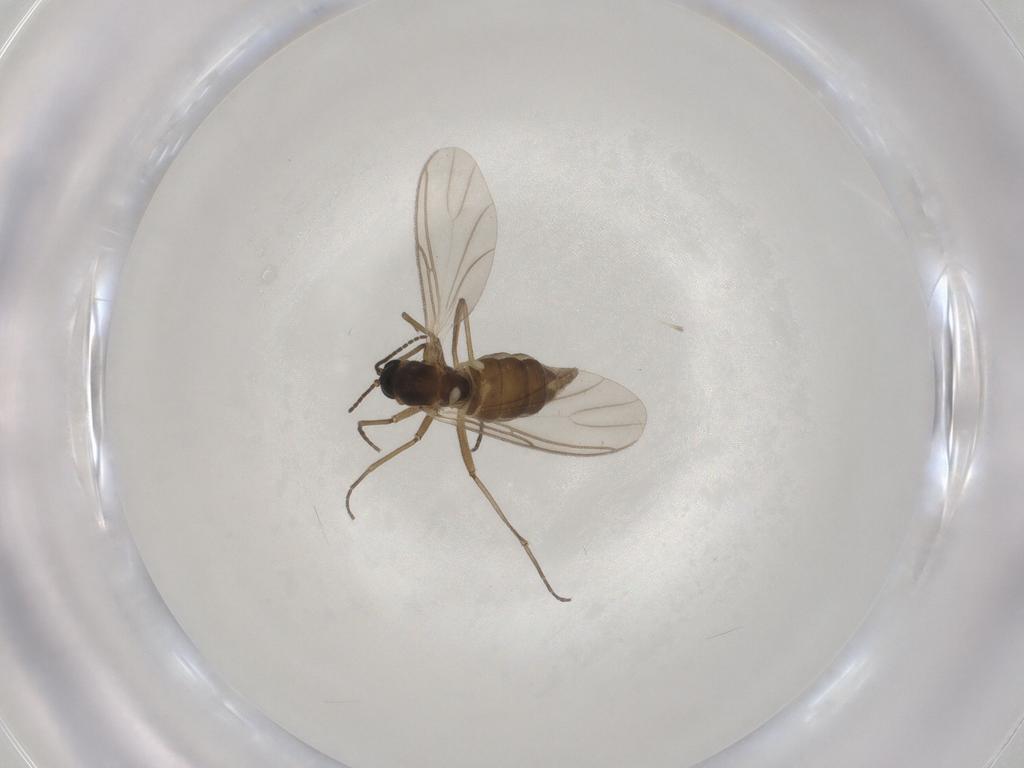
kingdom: Animalia
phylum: Arthropoda
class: Insecta
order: Diptera
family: Sciaridae
